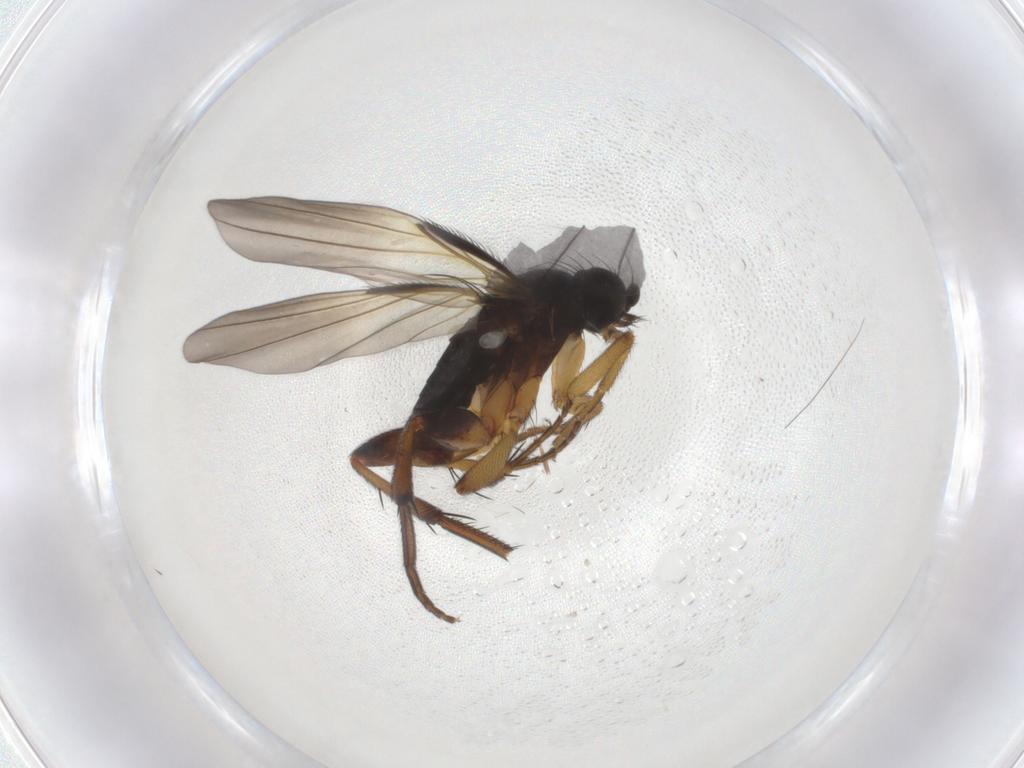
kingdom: Animalia
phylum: Arthropoda
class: Insecta
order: Diptera
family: Phoridae
